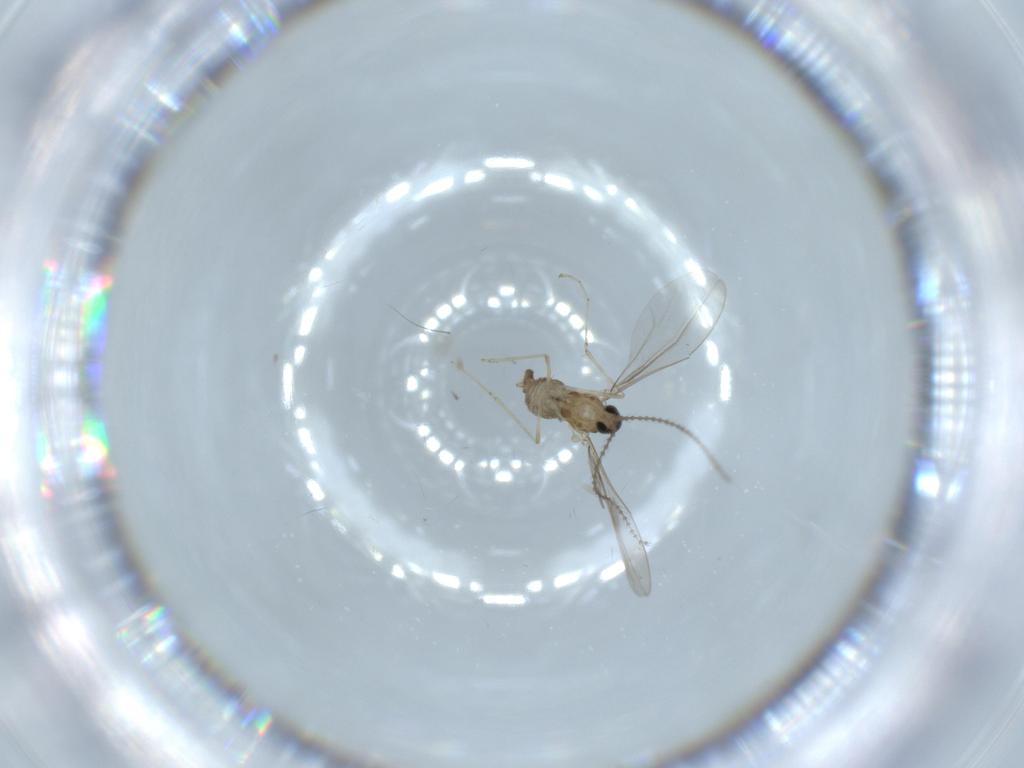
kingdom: Animalia
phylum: Arthropoda
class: Insecta
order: Diptera
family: Cecidomyiidae
